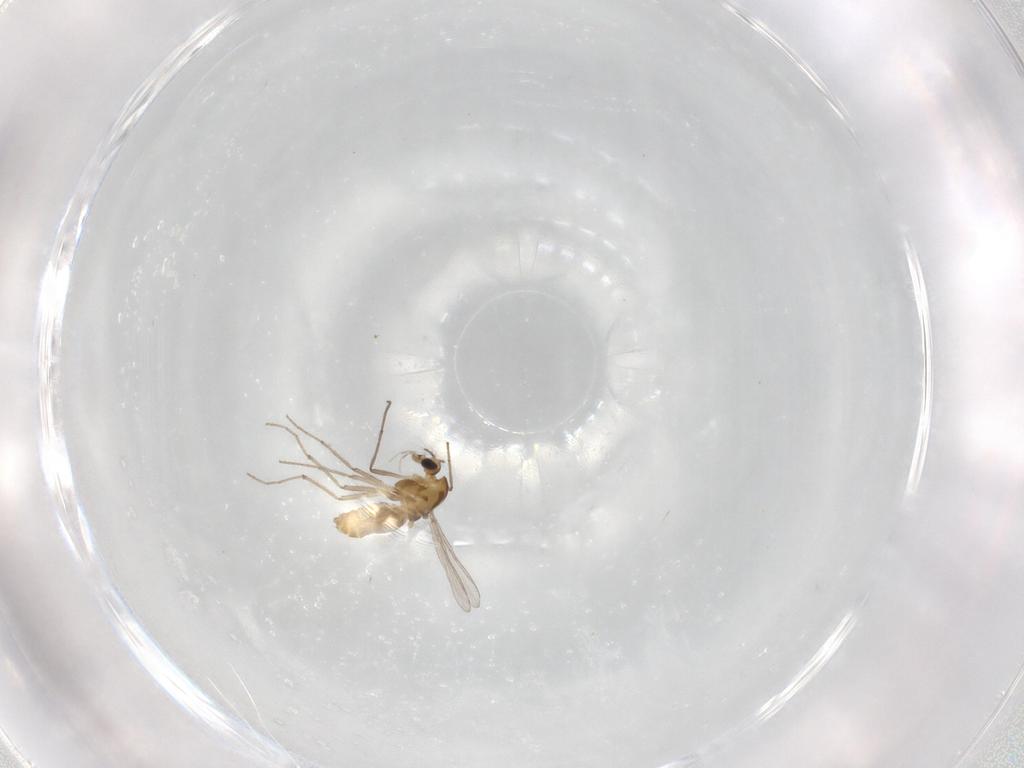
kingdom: Animalia
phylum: Arthropoda
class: Insecta
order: Diptera
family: Chironomidae
